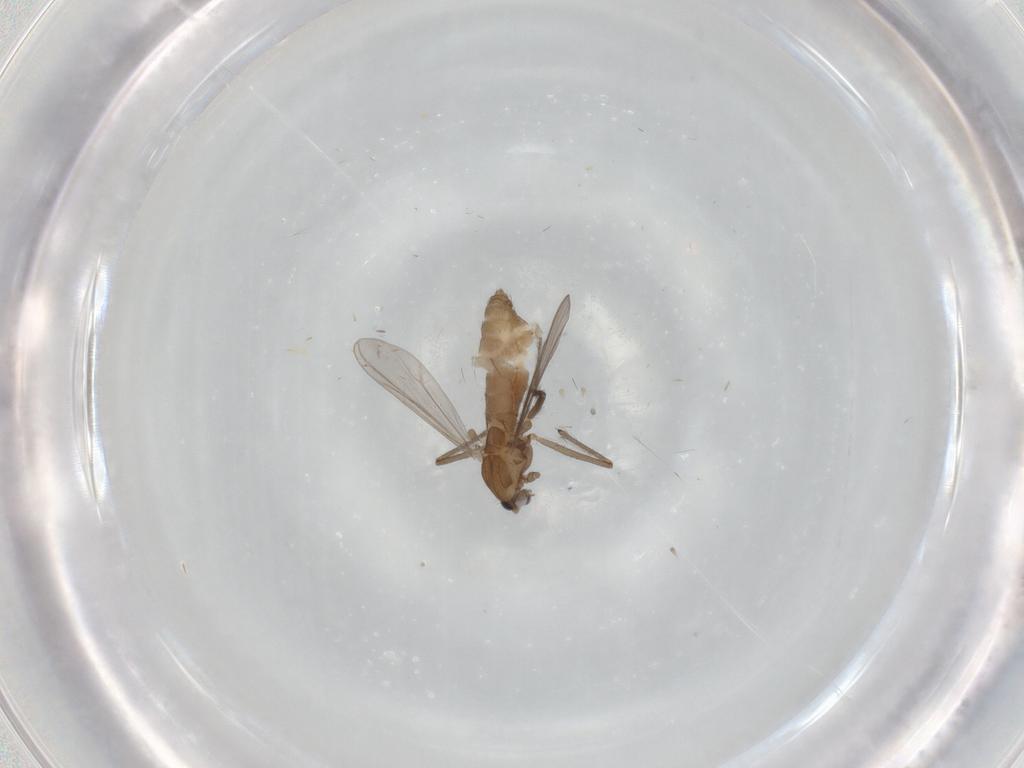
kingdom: Animalia
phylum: Arthropoda
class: Insecta
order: Diptera
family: Chironomidae
